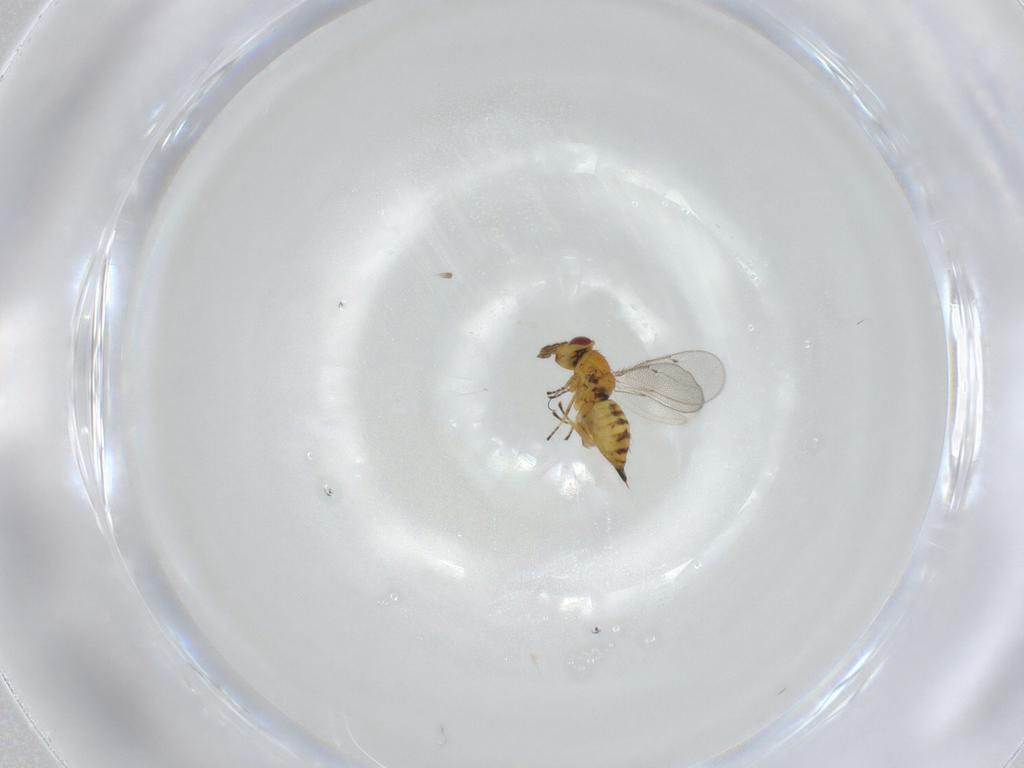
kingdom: Animalia
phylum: Arthropoda
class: Insecta
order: Hymenoptera
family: Eulophidae
